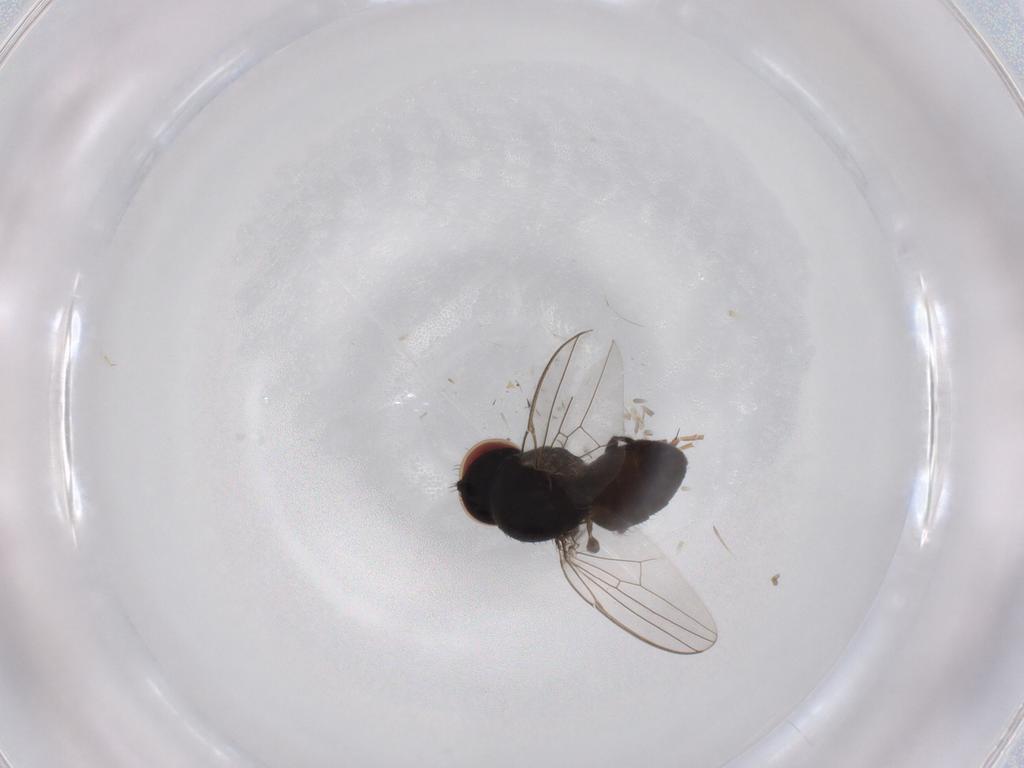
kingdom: Animalia
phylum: Arthropoda
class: Insecta
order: Diptera
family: Milichiidae
